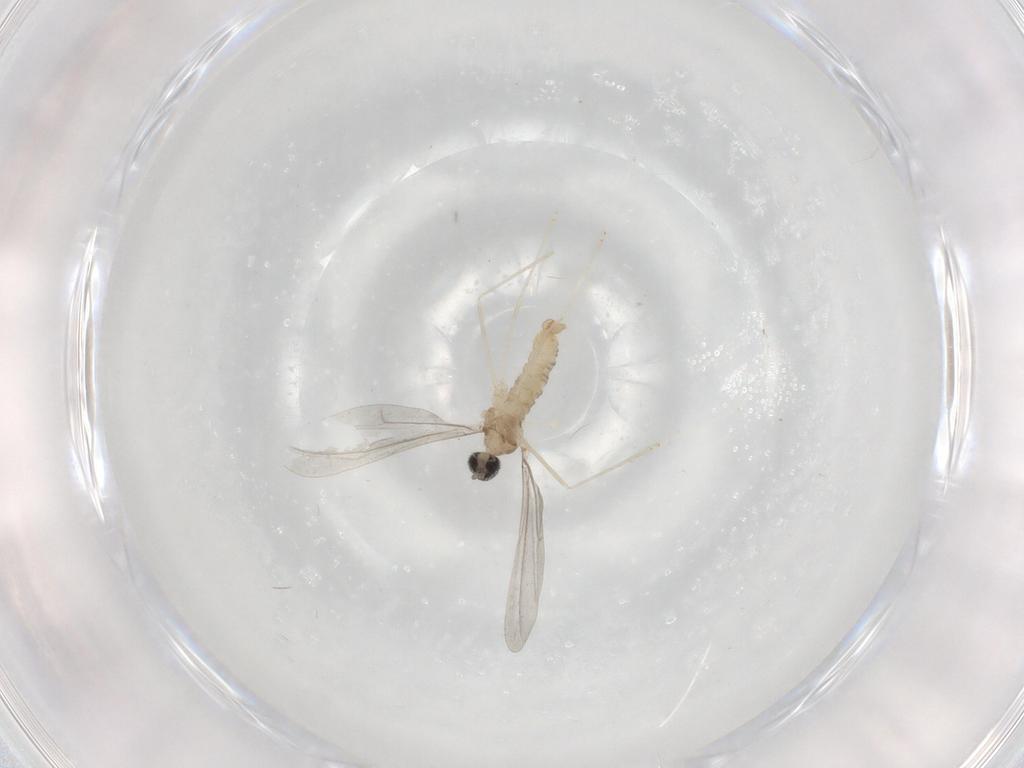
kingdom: Animalia
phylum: Arthropoda
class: Insecta
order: Diptera
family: Cecidomyiidae
